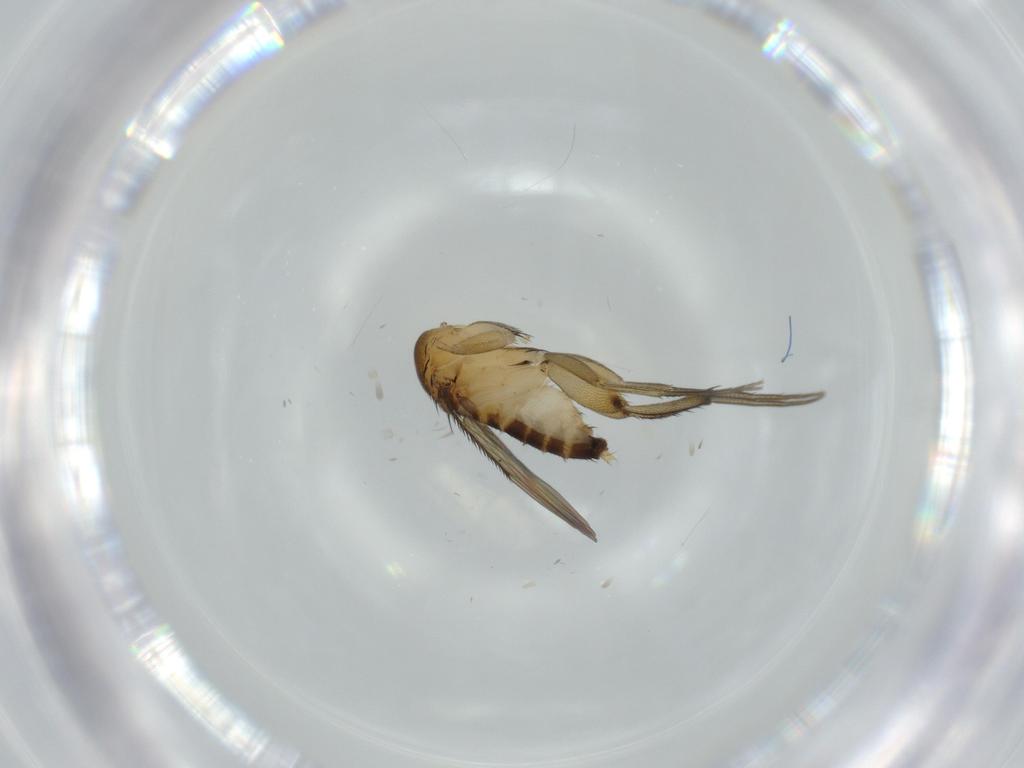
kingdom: Animalia
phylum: Arthropoda
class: Insecta
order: Diptera
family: Phoridae
